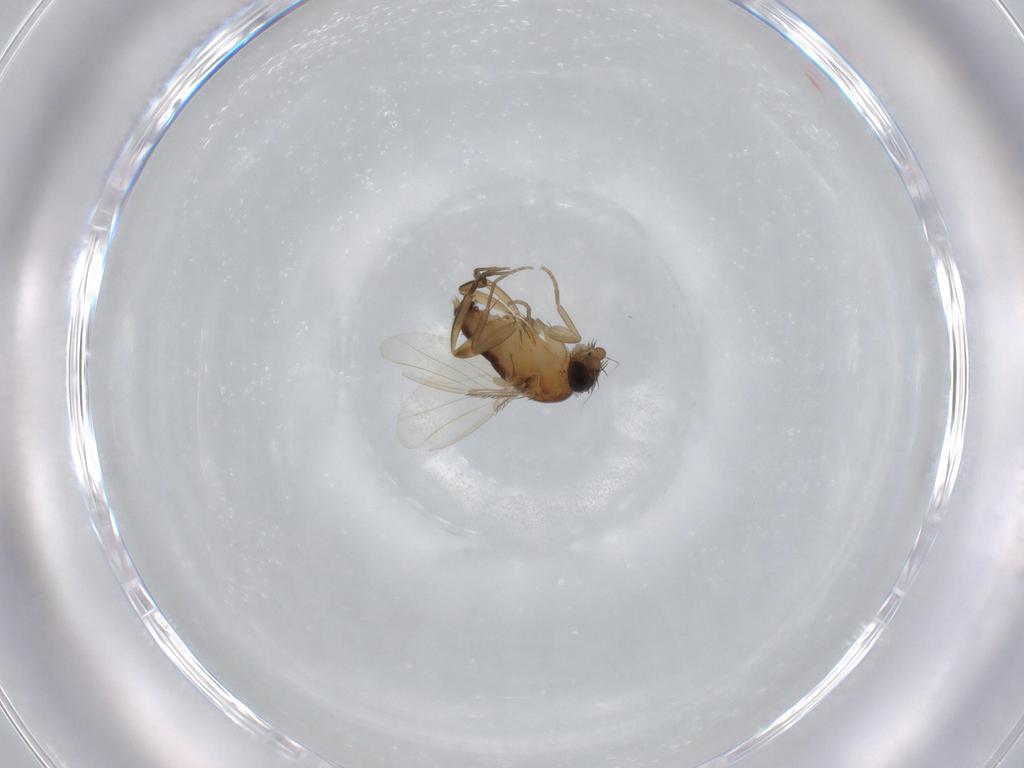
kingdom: Animalia
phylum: Arthropoda
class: Insecta
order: Diptera
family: Phoridae
